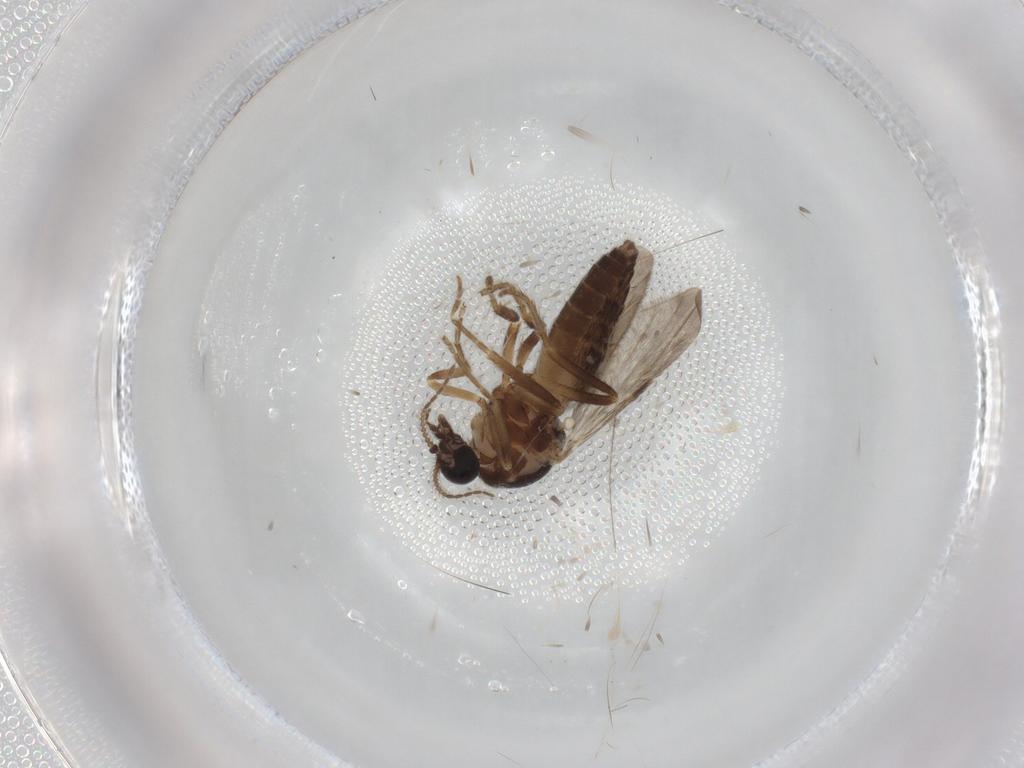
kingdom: Animalia
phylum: Arthropoda
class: Insecta
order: Diptera
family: Ceratopogonidae
